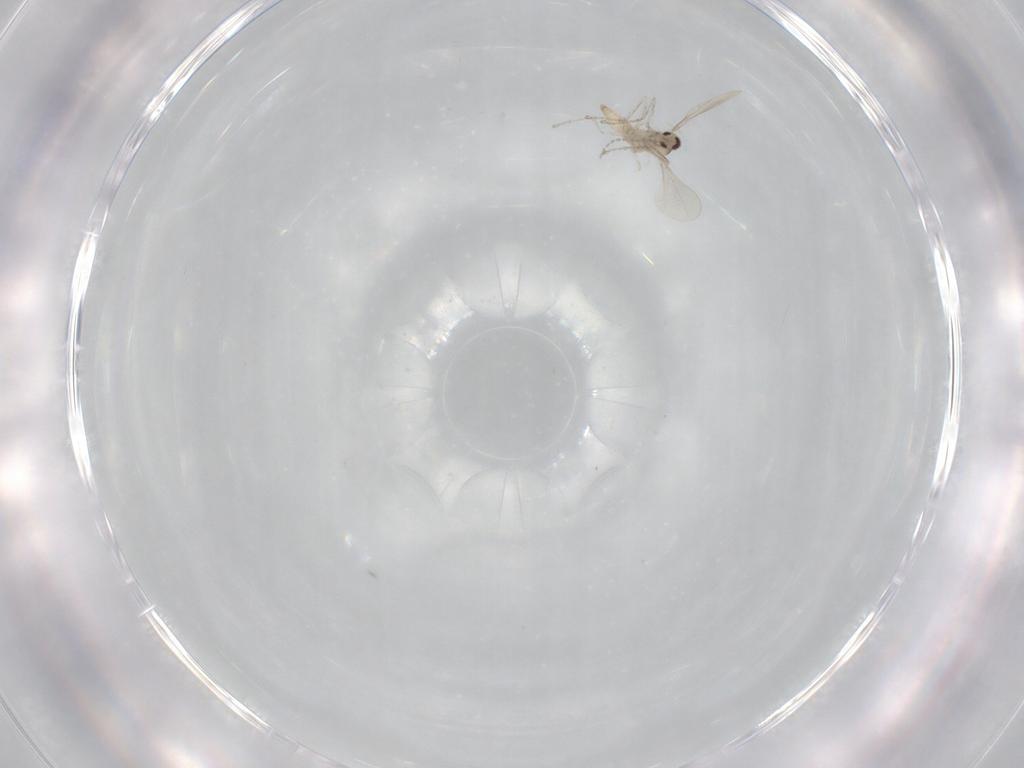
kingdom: Animalia
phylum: Arthropoda
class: Insecta
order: Diptera
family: Cecidomyiidae
